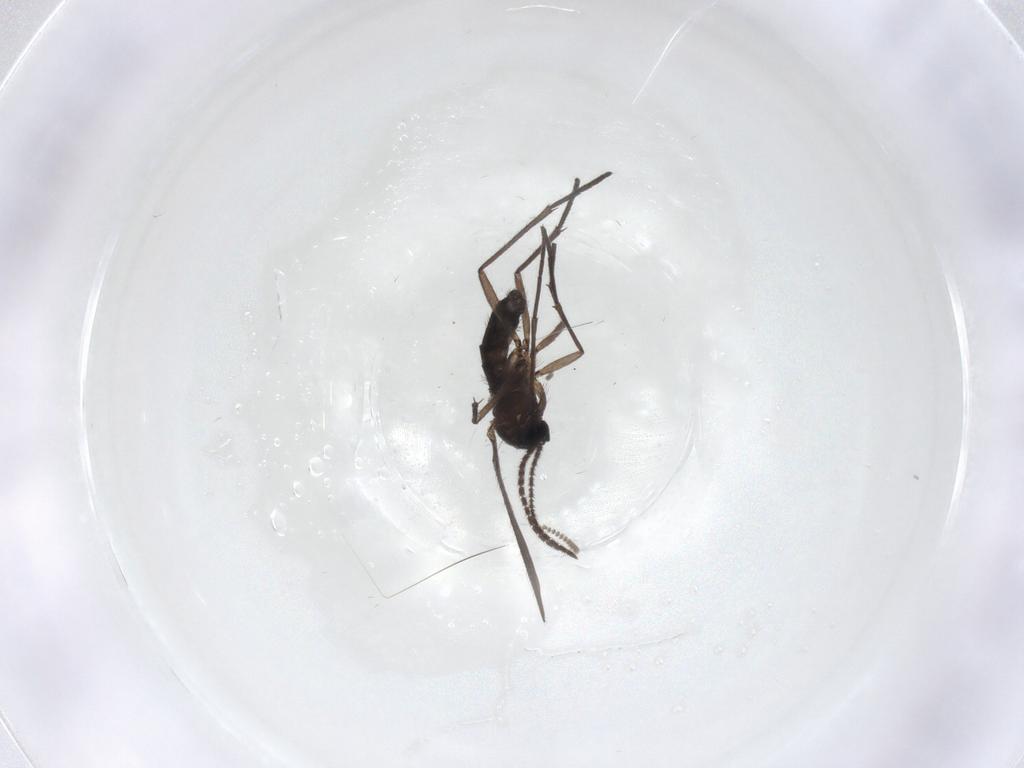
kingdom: Animalia
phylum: Arthropoda
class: Insecta
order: Diptera
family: Sciaridae
